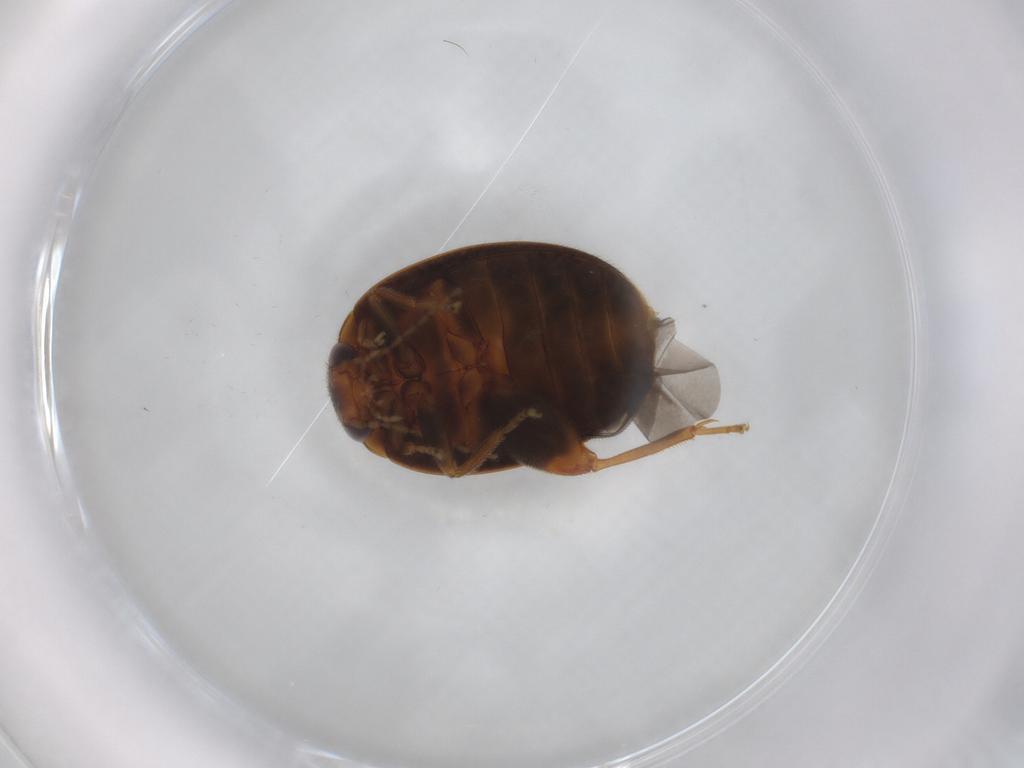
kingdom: Animalia
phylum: Arthropoda
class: Insecta
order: Coleoptera
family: Scirtidae
